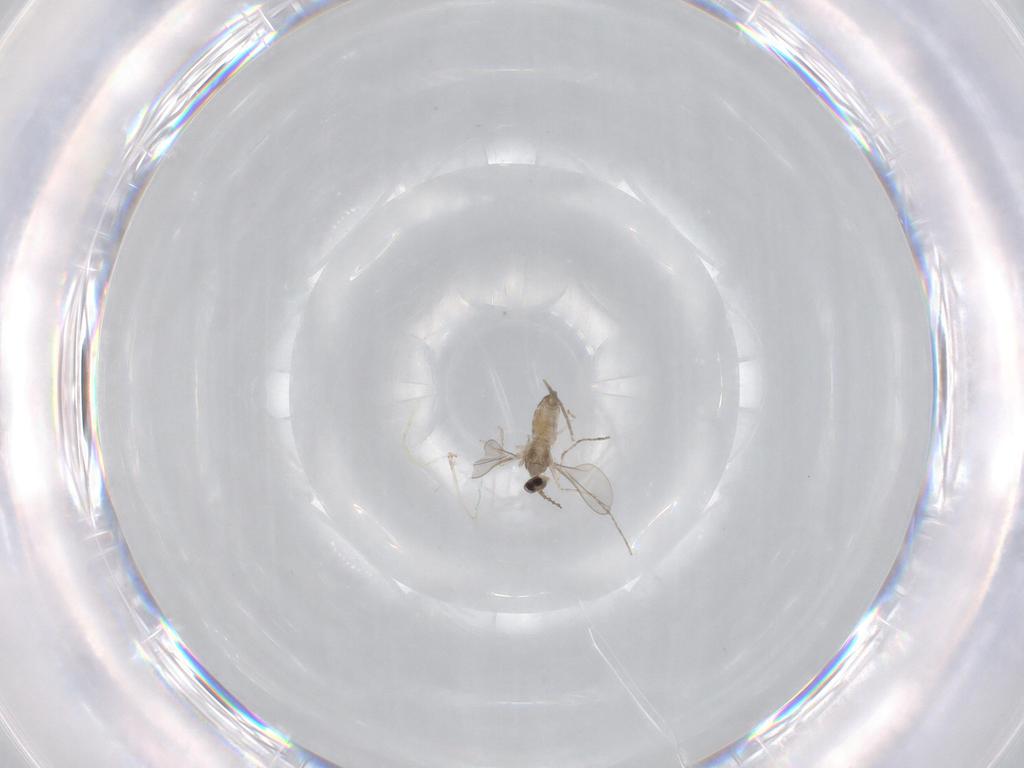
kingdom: Animalia
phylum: Arthropoda
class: Insecta
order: Diptera
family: Cecidomyiidae
